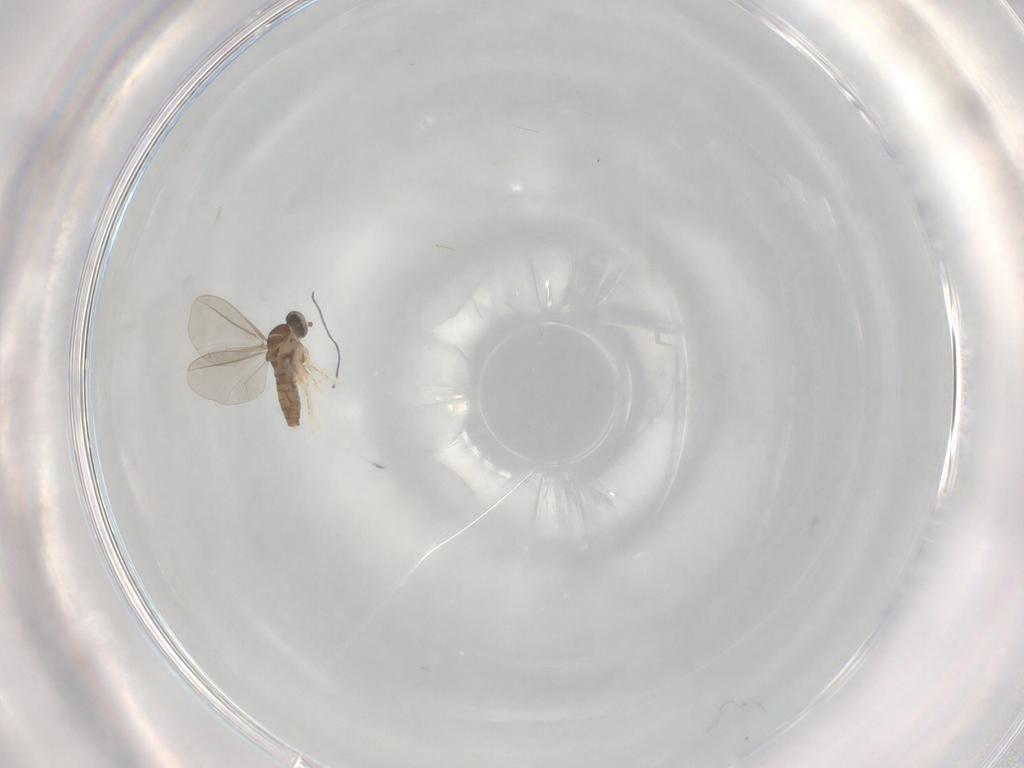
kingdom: Animalia
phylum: Arthropoda
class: Insecta
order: Diptera
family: Cecidomyiidae
